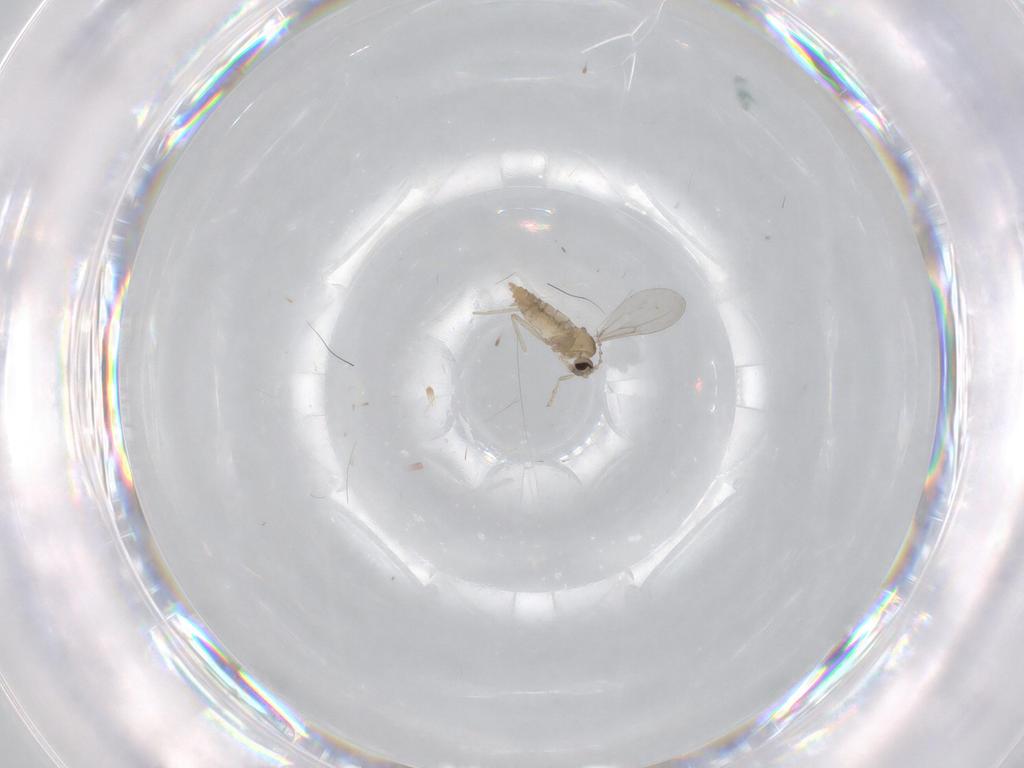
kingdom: Animalia
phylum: Arthropoda
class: Insecta
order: Diptera
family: Cecidomyiidae
